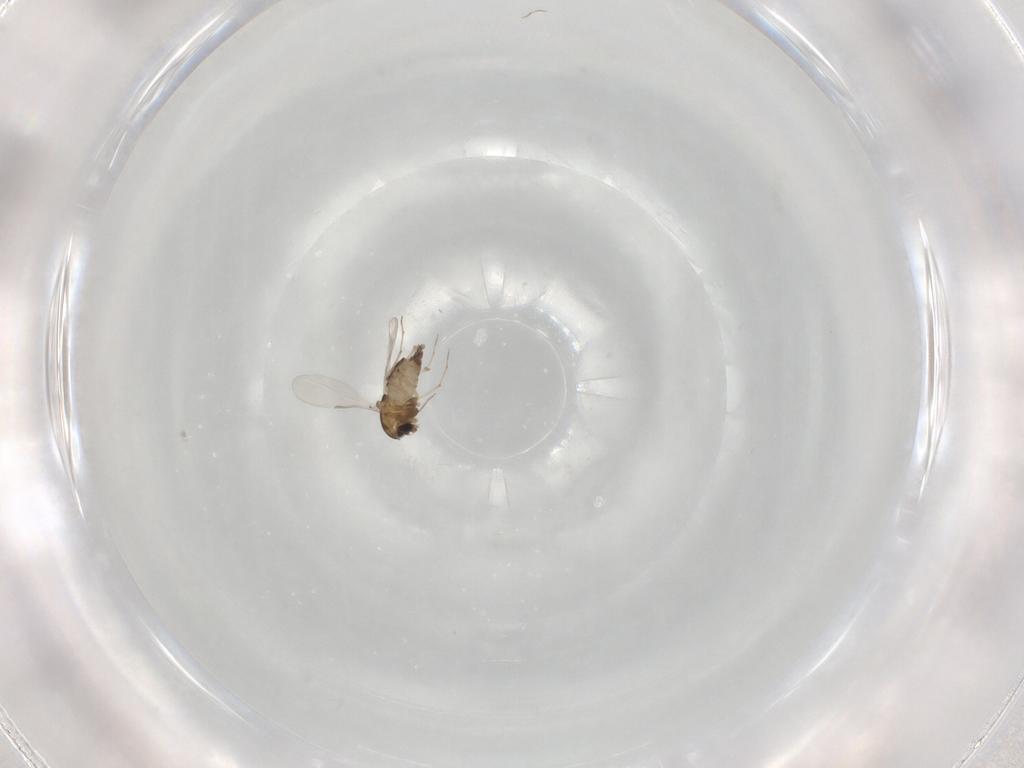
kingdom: Animalia
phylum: Arthropoda
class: Insecta
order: Diptera
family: Chironomidae
